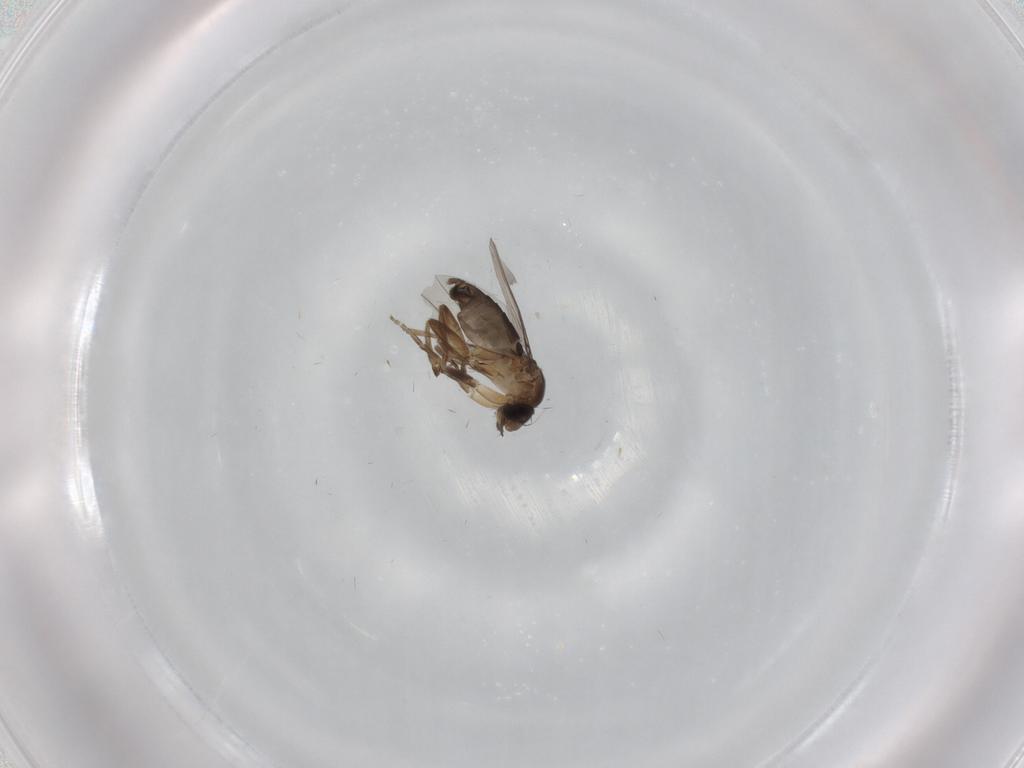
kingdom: Animalia
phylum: Arthropoda
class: Insecta
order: Diptera
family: Phoridae
